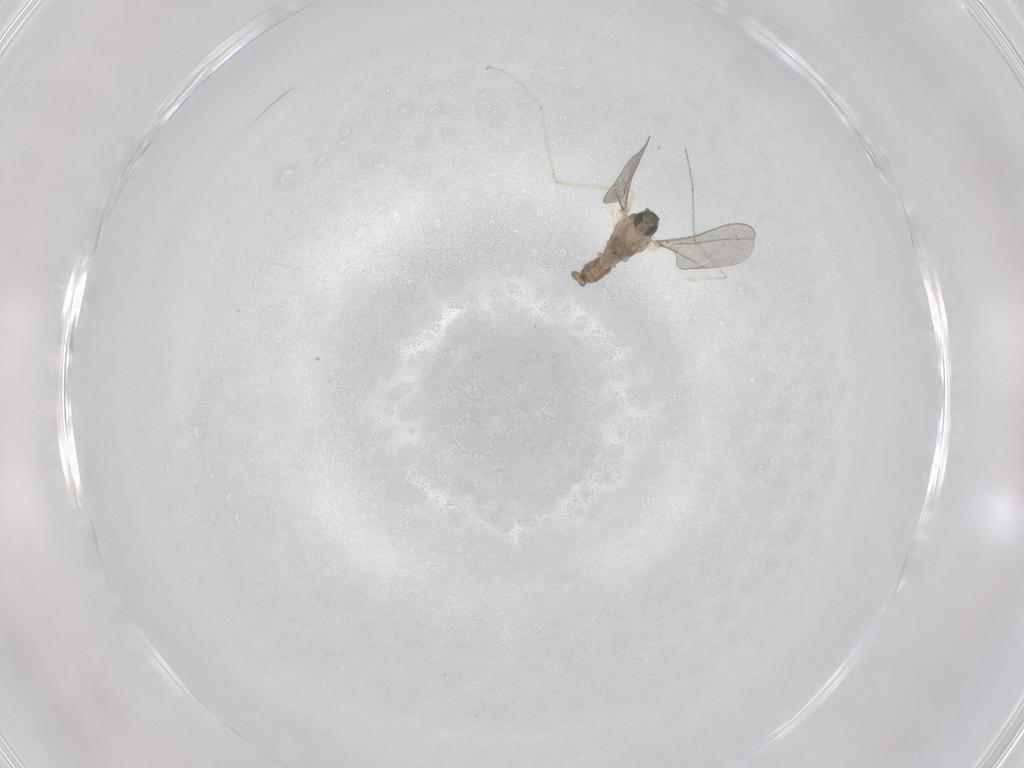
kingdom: Animalia
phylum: Arthropoda
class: Insecta
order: Diptera
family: Cecidomyiidae
